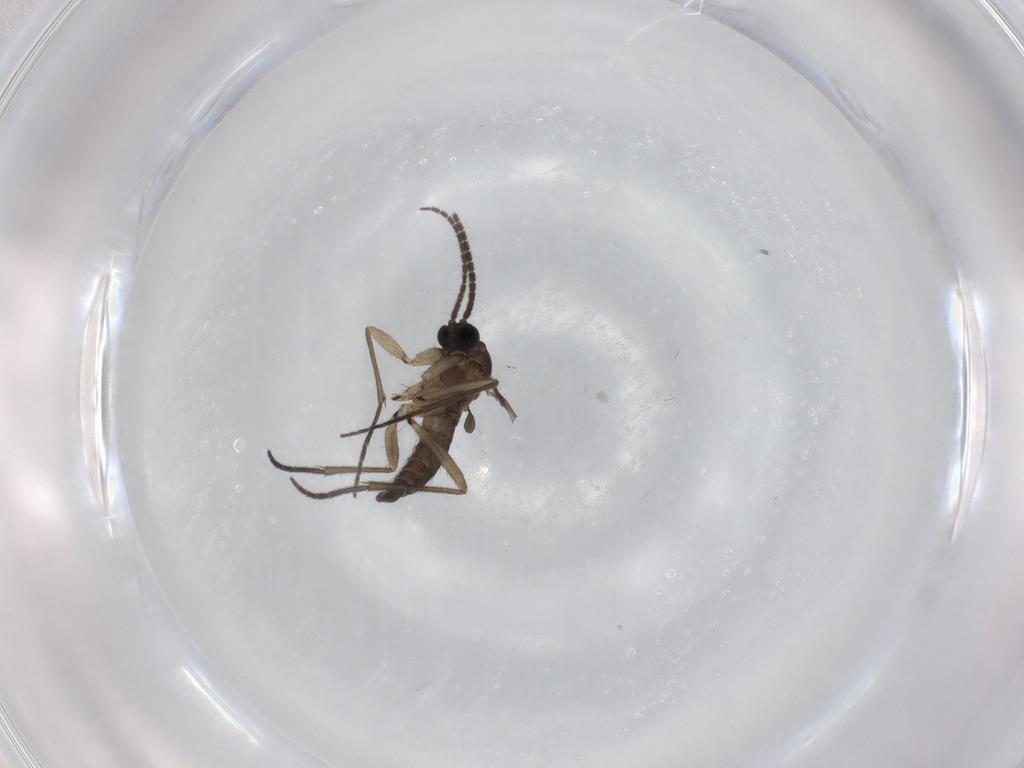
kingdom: Animalia
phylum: Arthropoda
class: Insecta
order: Diptera
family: Sciaridae
